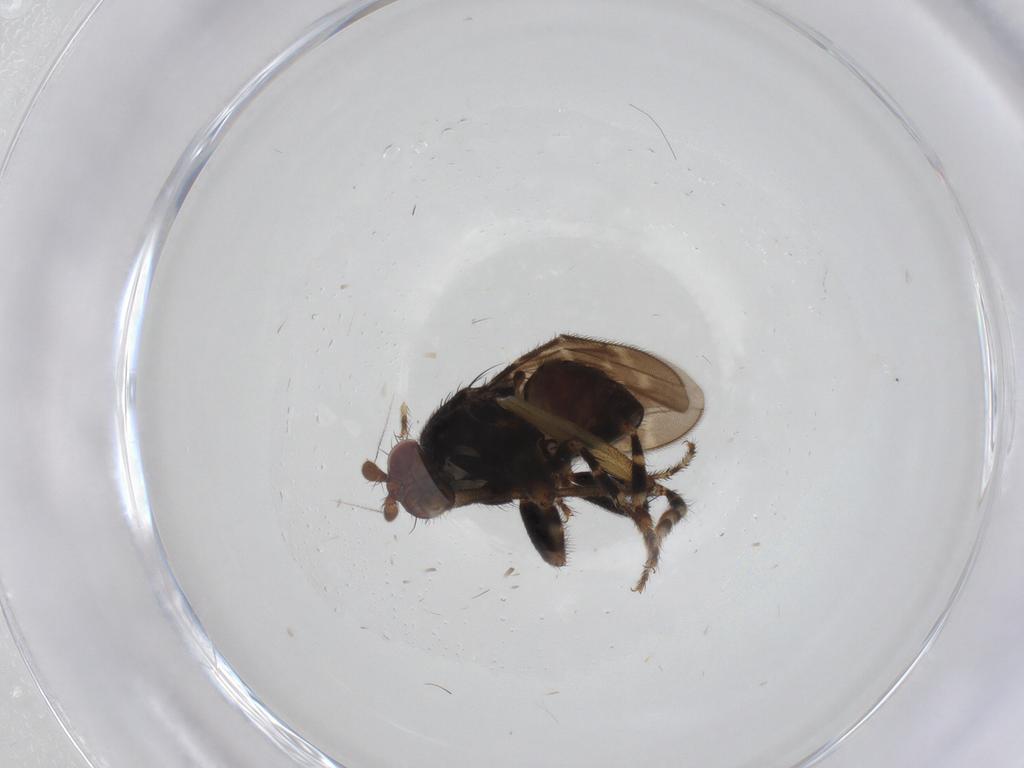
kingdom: Animalia
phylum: Arthropoda
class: Insecta
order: Diptera
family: Sphaeroceridae
